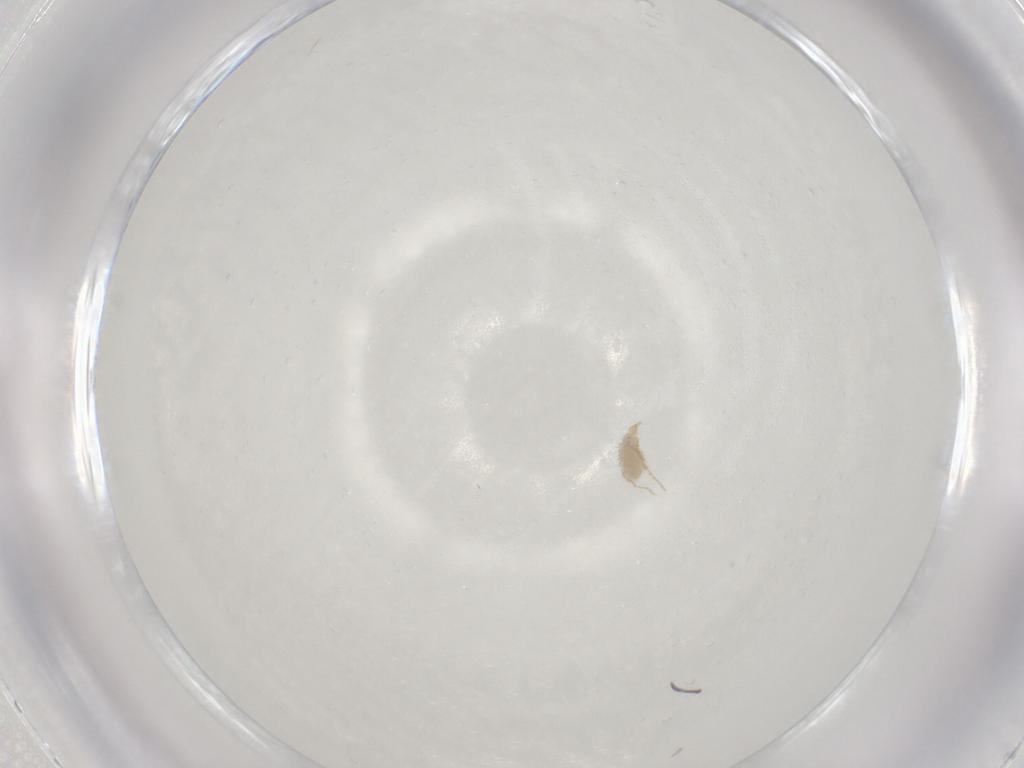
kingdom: Animalia
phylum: Arthropoda
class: Arachnida
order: Trombidiformes
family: Erythraeidae
